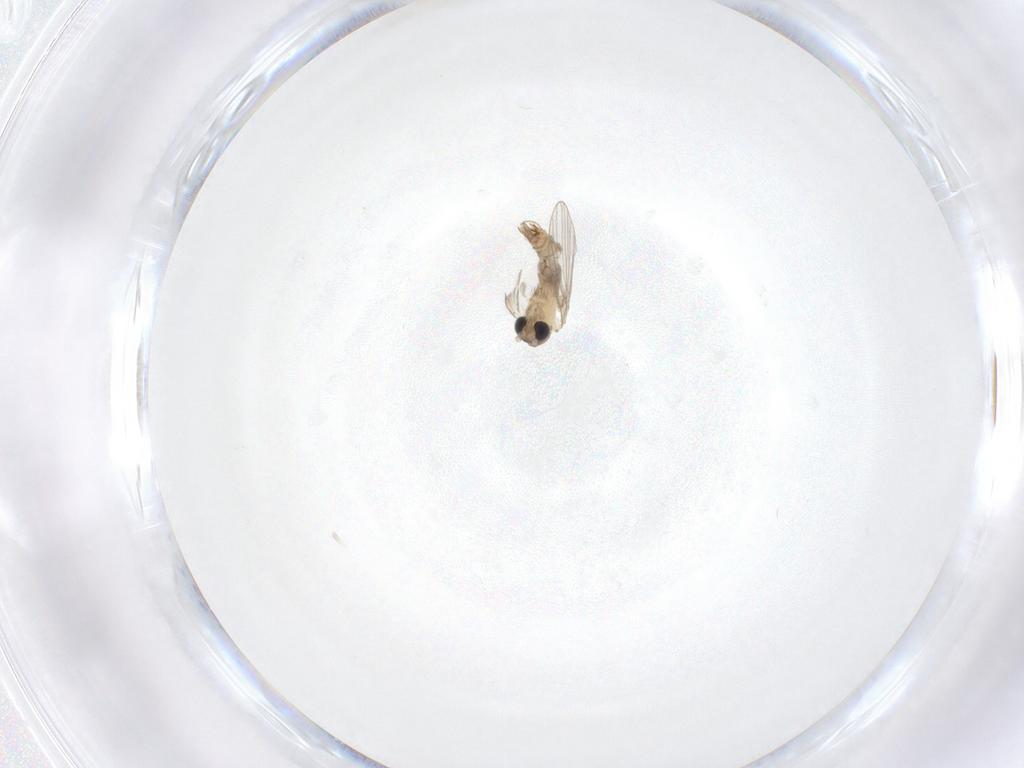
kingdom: Animalia
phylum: Arthropoda
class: Insecta
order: Diptera
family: Psychodidae
